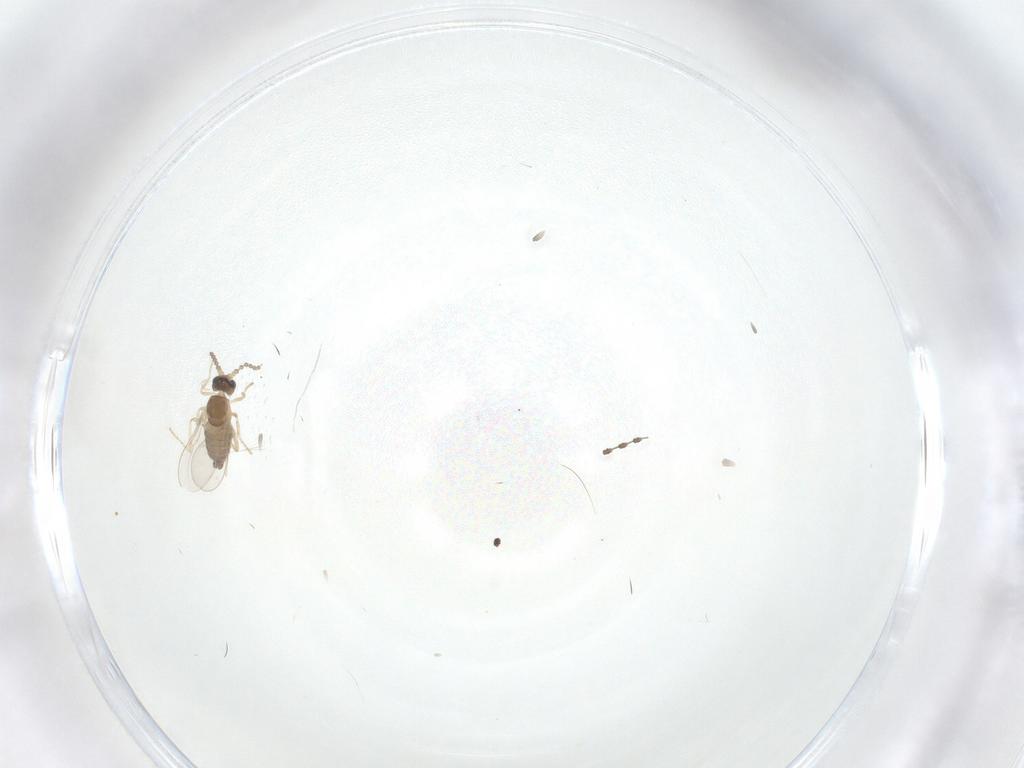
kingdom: Animalia
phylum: Arthropoda
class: Insecta
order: Diptera
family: Cecidomyiidae
